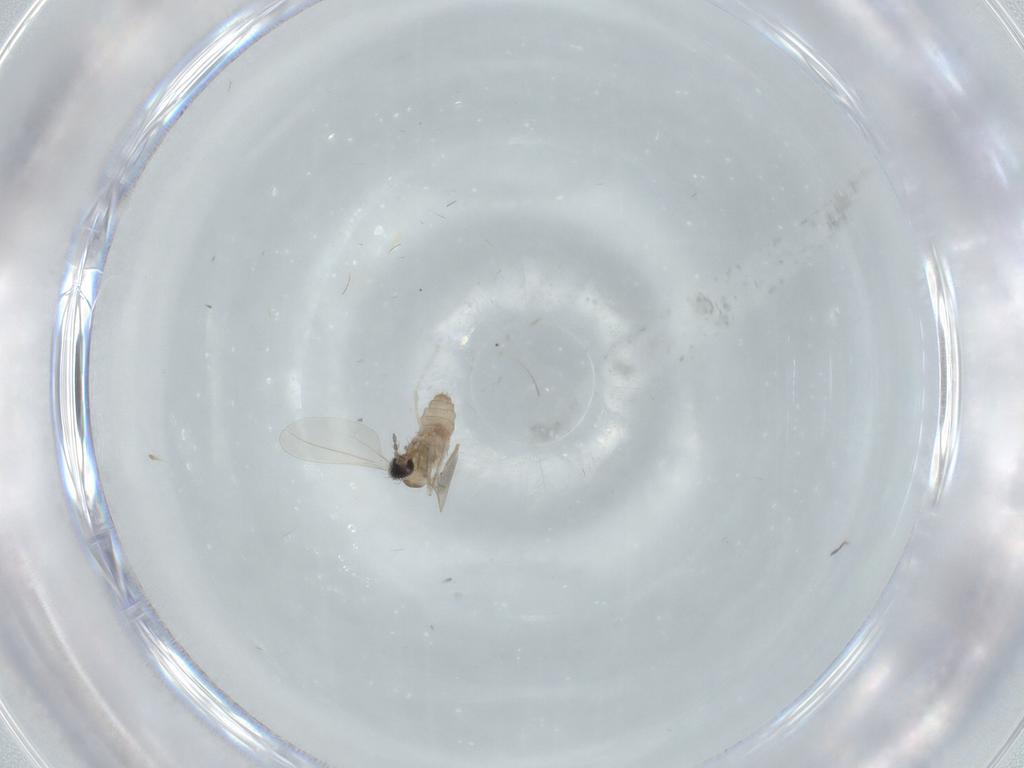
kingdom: Animalia
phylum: Arthropoda
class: Insecta
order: Diptera
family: Cecidomyiidae
